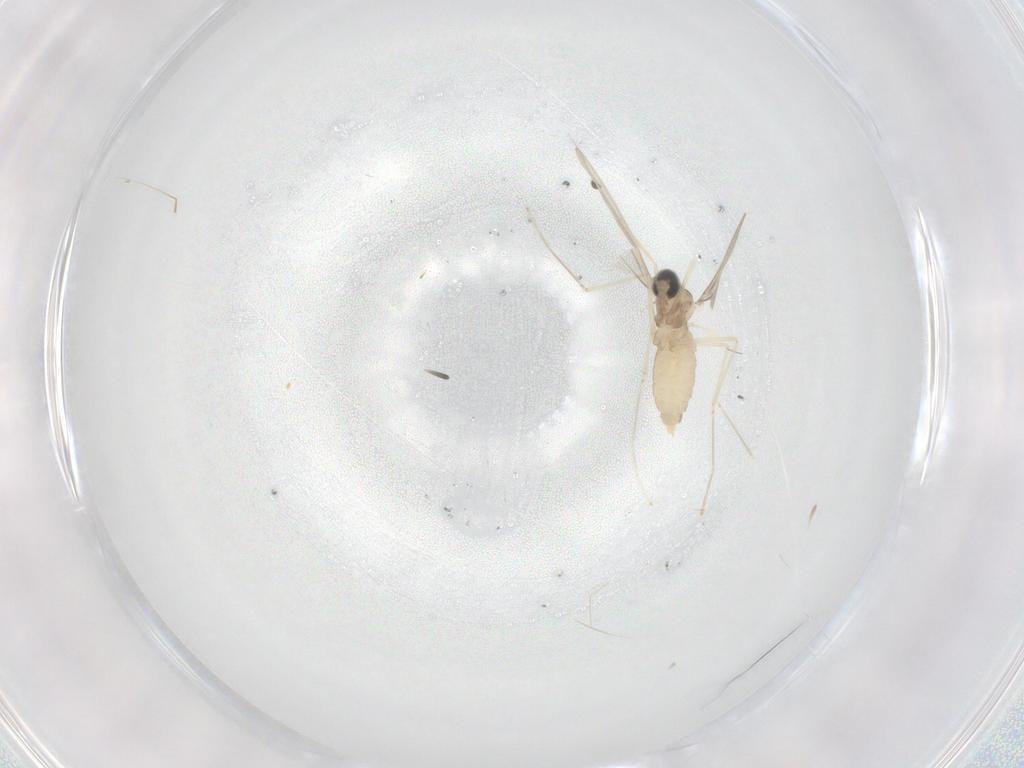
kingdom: Animalia
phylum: Arthropoda
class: Insecta
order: Diptera
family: Cecidomyiidae
